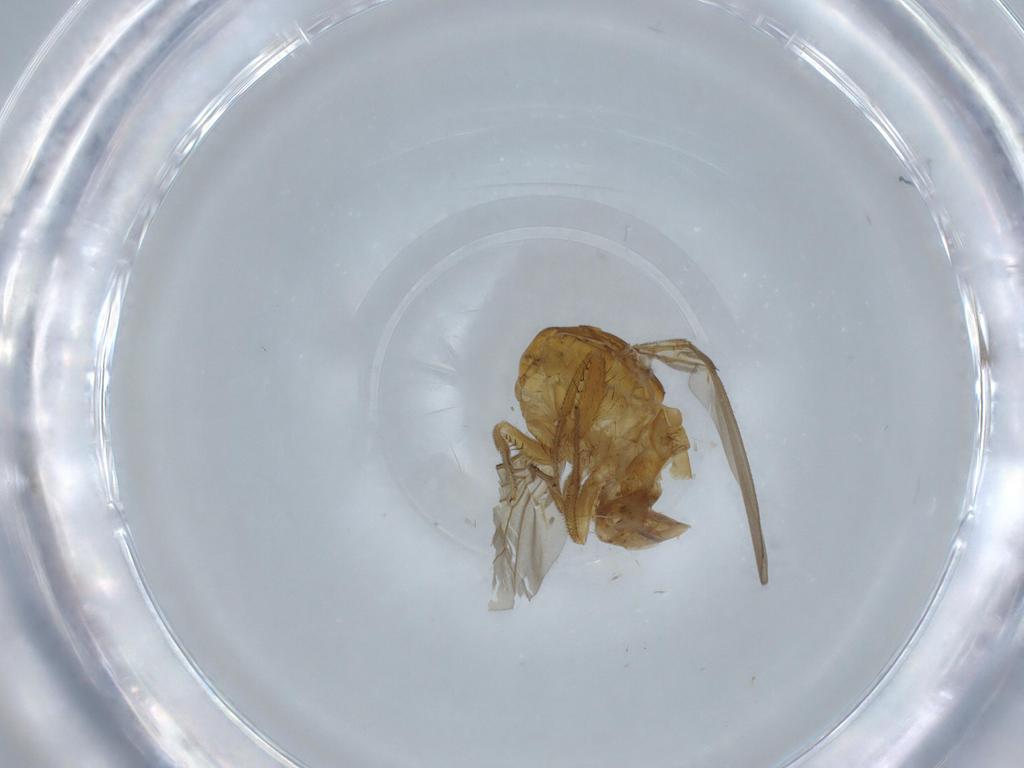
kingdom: Animalia
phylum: Arthropoda
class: Insecta
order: Diptera
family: Drosophilidae
